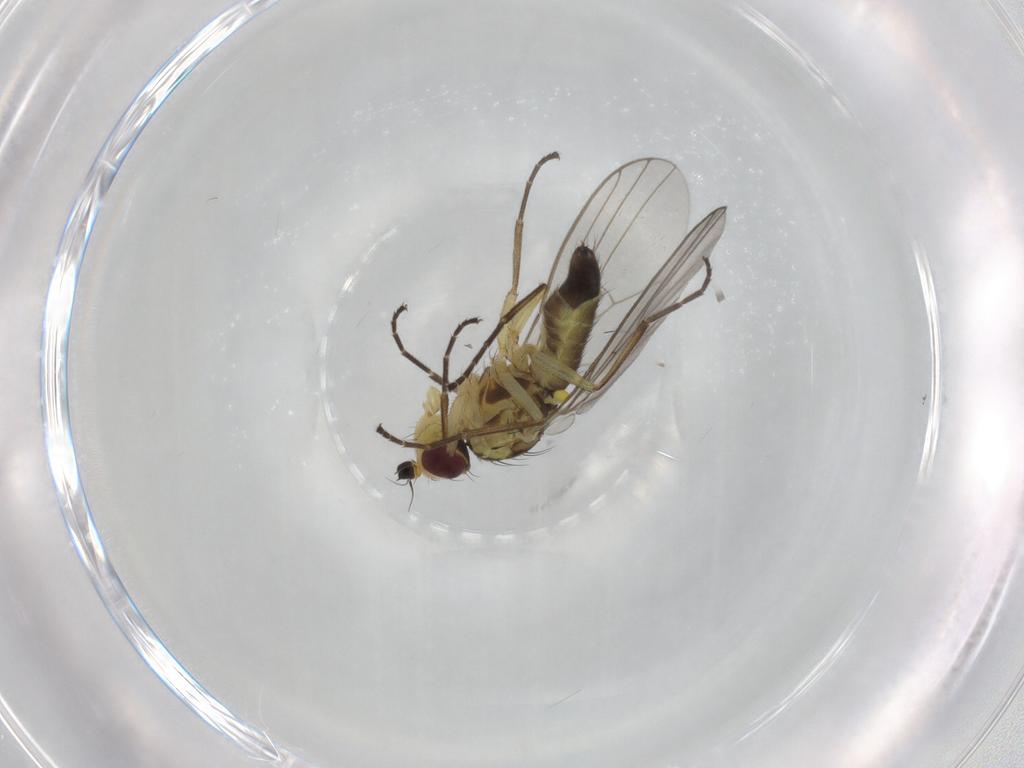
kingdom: Animalia
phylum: Arthropoda
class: Insecta
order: Diptera
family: Agromyzidae
